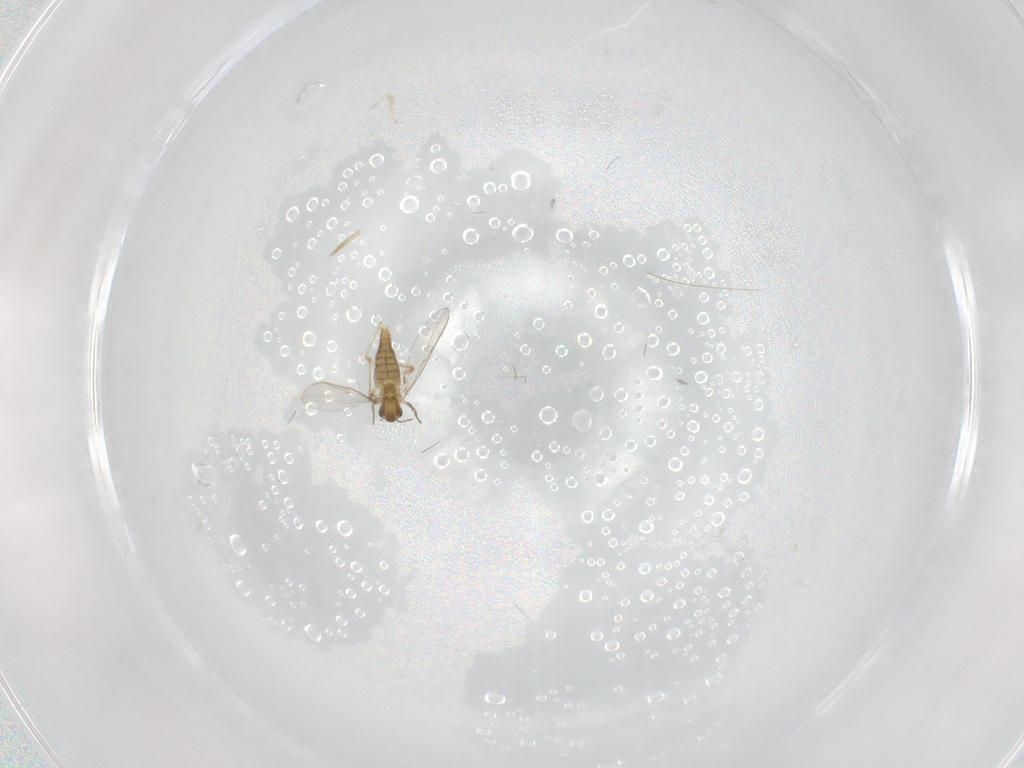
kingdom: Animalia
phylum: Arthropoda
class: Insecta
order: Diptera
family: Chironomidae
